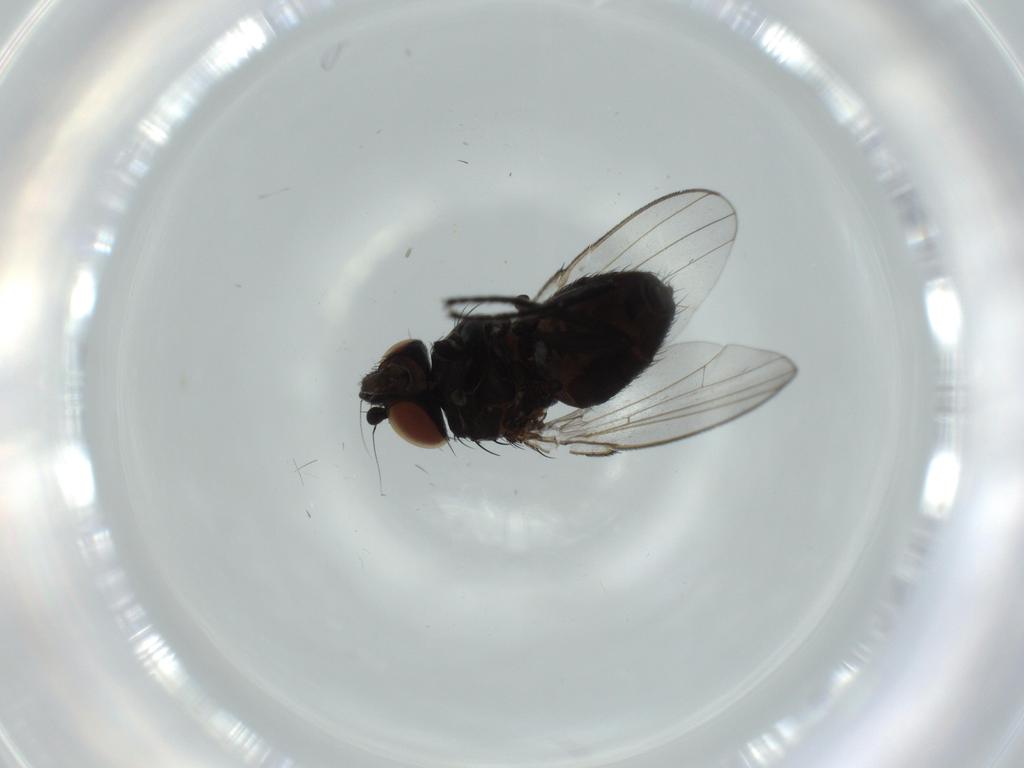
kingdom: Animalia
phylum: Arthropoda
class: Insecta
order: Diptera
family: Milichiidae
